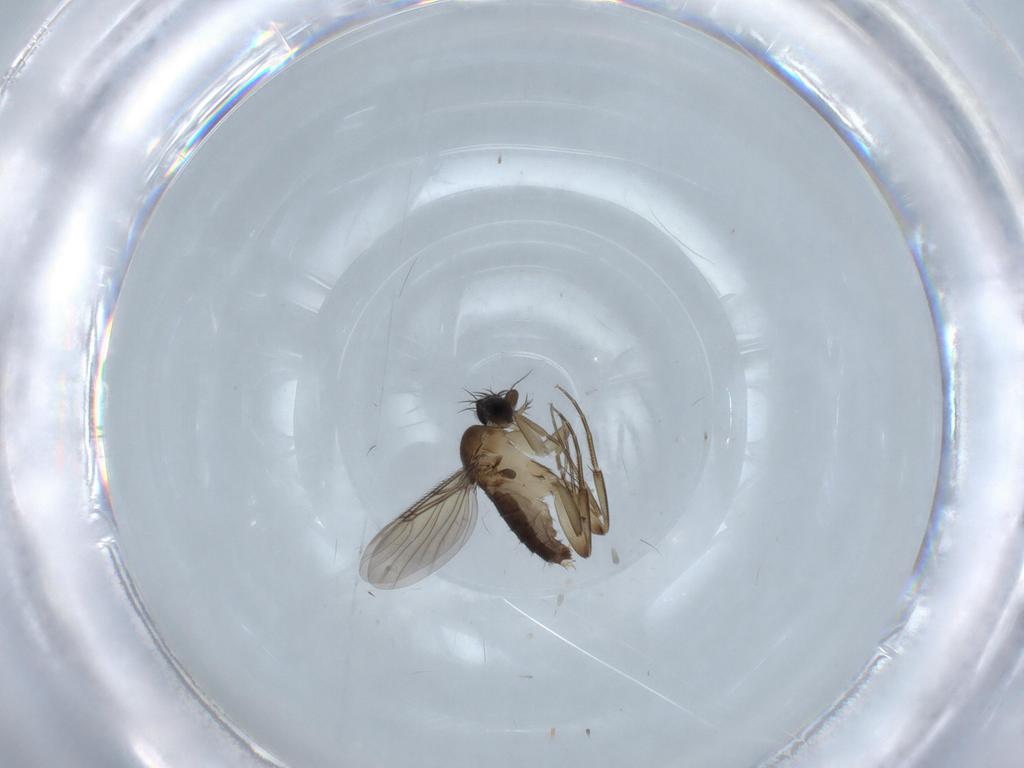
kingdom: Animalia
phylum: Arthropoda
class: Insecta
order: Diptera
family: Phoridae
